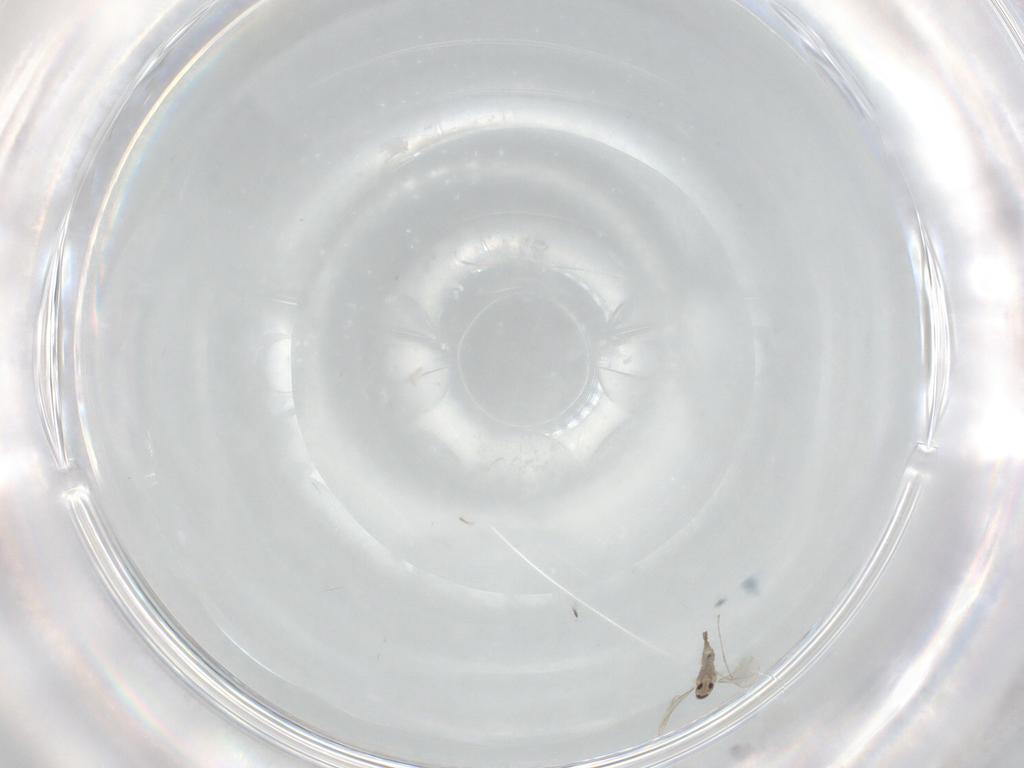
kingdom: Animalia
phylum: Arthropoda
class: Insecta
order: Diptera
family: Cecidomyiidae
